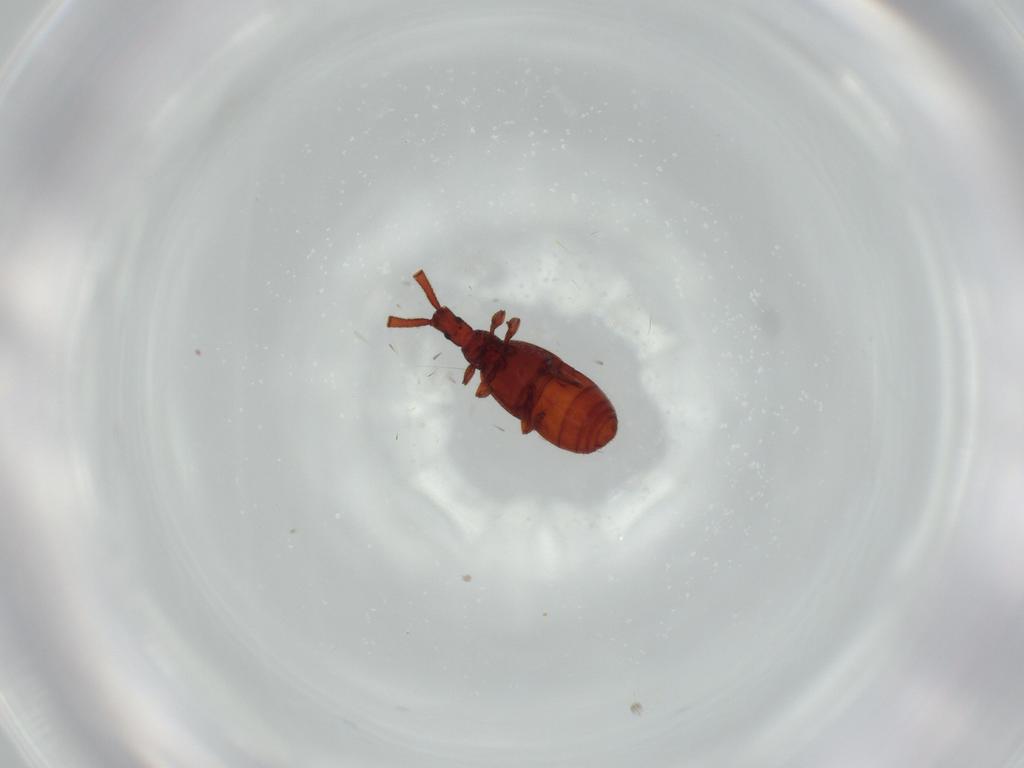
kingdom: Animalia
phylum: Arthropoda
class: Insecta
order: Coleoptera
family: Staphylinidae
